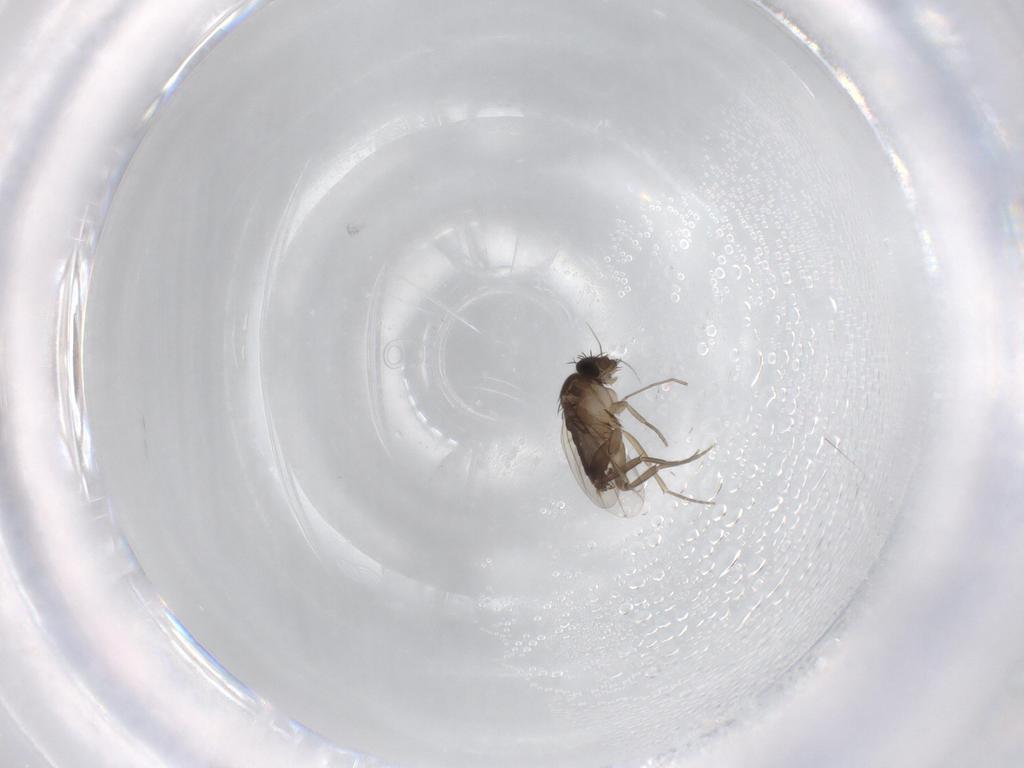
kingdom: Animalia
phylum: Arthropoda
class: Insecta
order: Diptera
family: Phoridae
